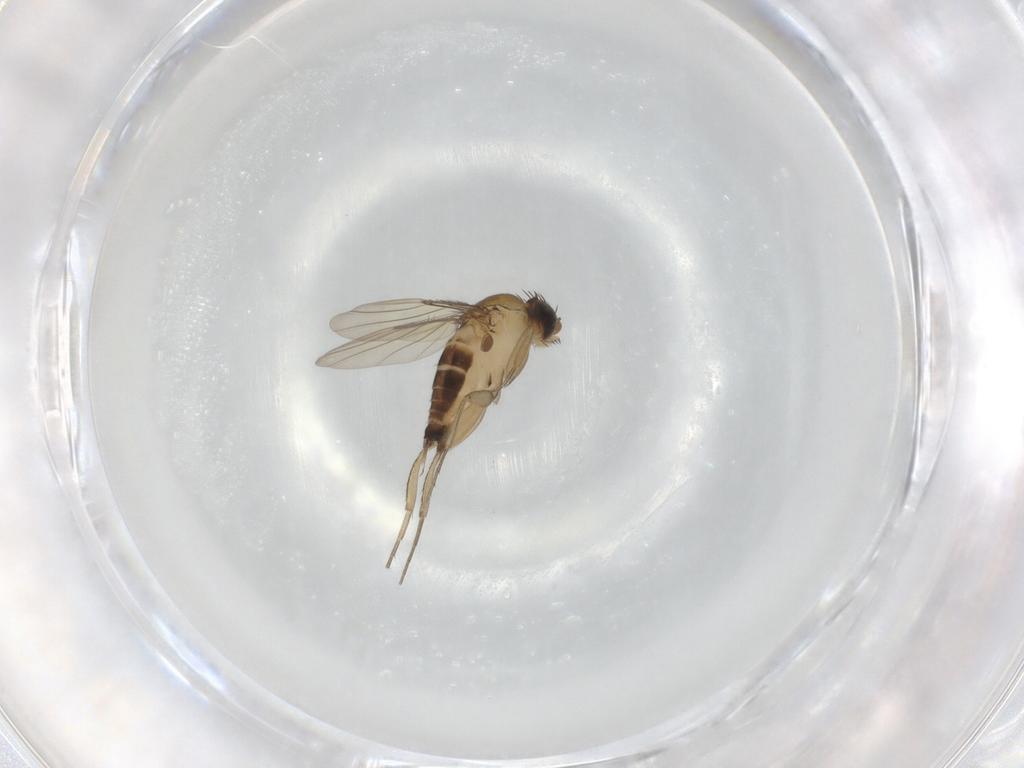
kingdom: Animalia
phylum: Arthropoda
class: Insecta
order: Diptera
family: Phoridae
